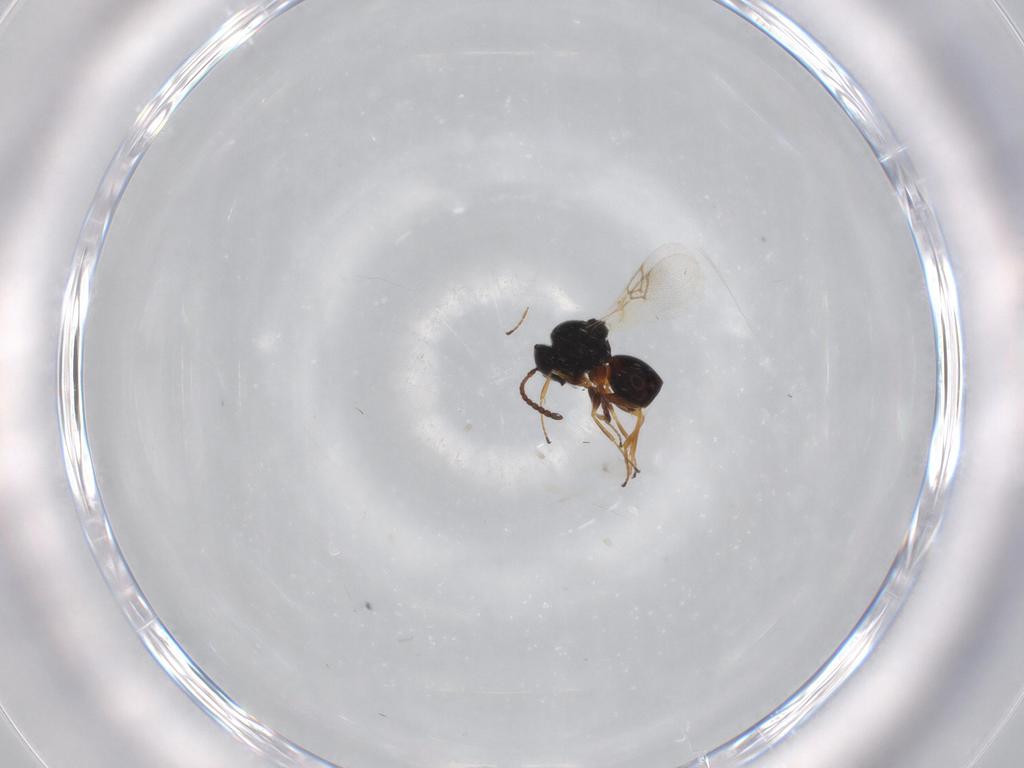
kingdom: Animalia
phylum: Arthropoda
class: Insecta
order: Hymenoptera
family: Figitidae
